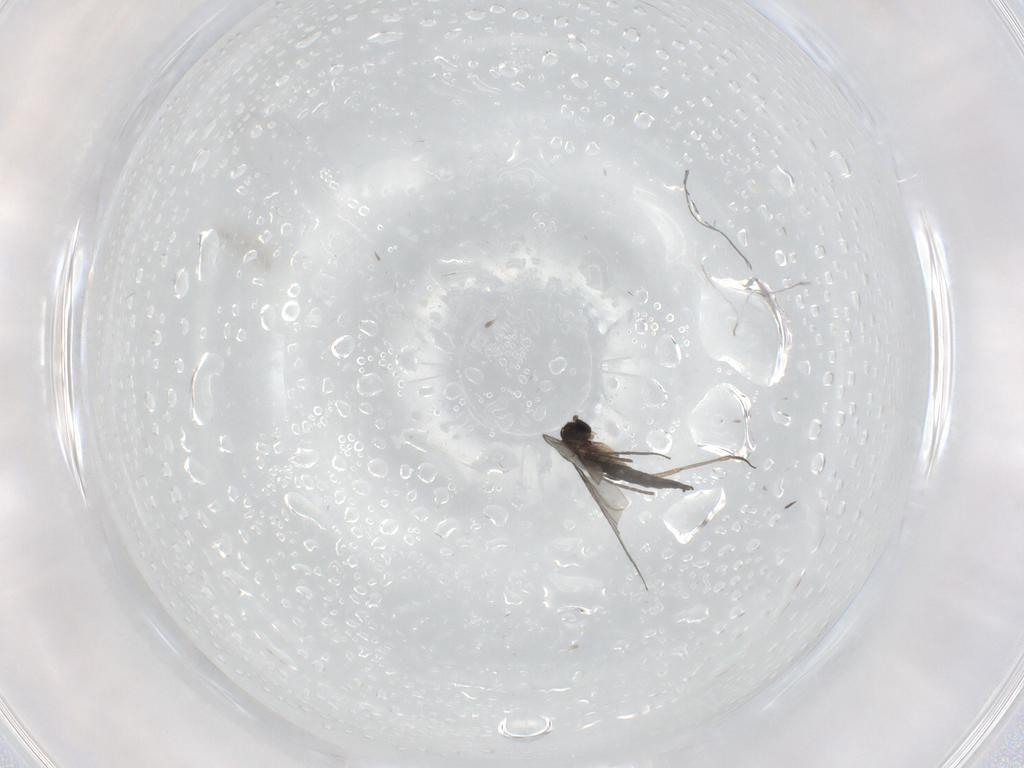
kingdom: Animalia
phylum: Arthropoda
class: Insecta
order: Diptera
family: Sciaridae
